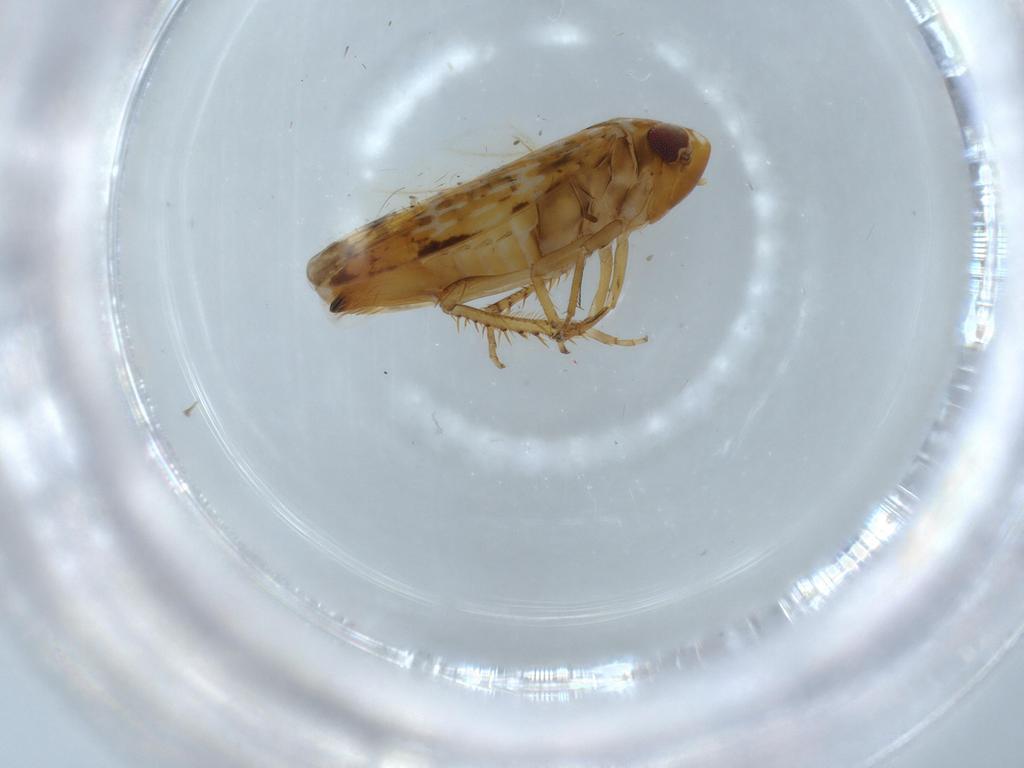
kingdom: Animalia
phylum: Arthropoda
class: Insecta
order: Hemiptera
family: Cicadellidae
